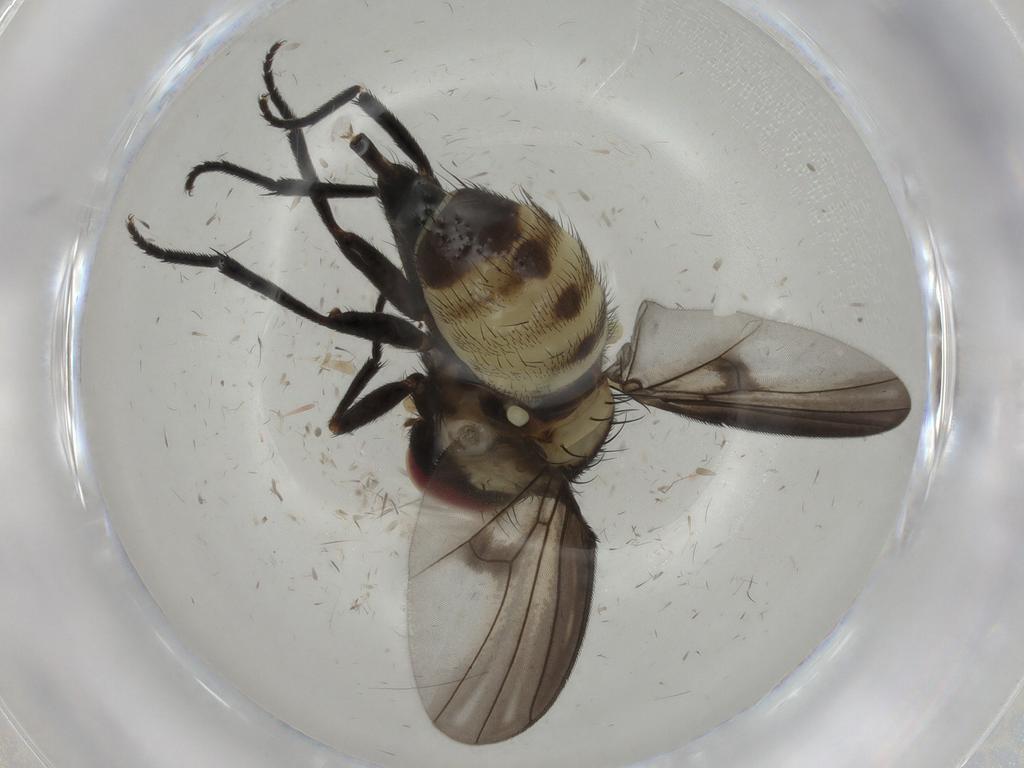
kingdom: Animalia
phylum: Arthropoda
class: Insecta
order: Diptera
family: Agromyzidae
